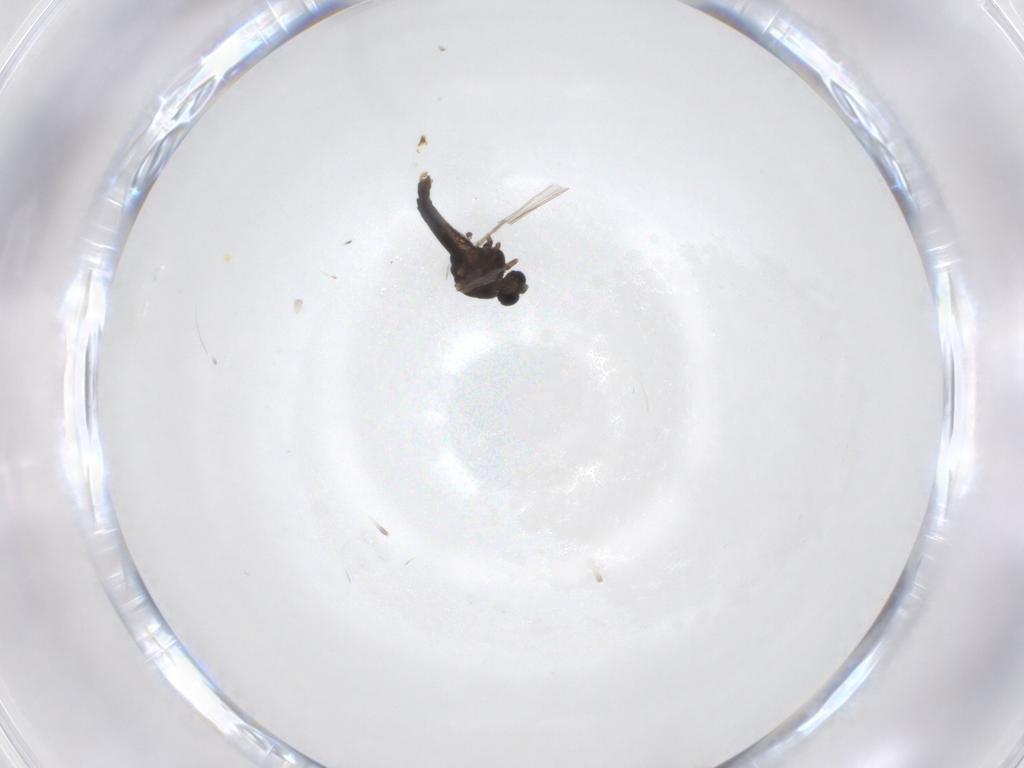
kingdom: Animalia
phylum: Arthropoda
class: Insecta
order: Diptera
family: Chironomidae
